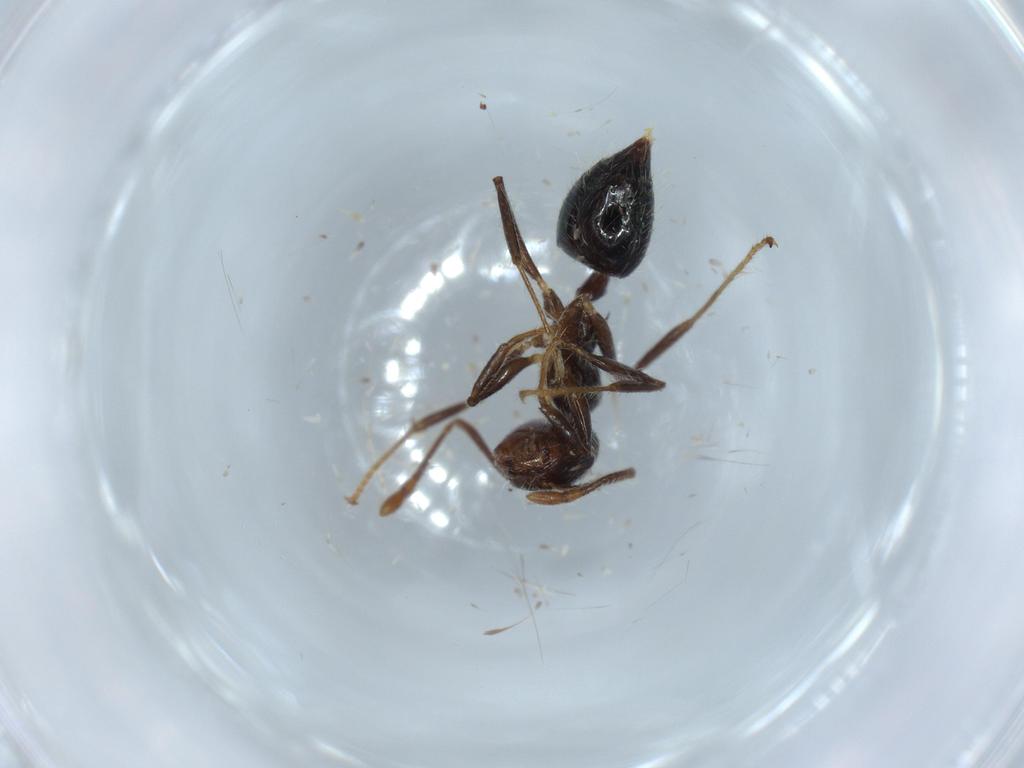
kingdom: Animalia
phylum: Arthropoda
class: Insecta
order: Hymenoptera
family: Formicidae
